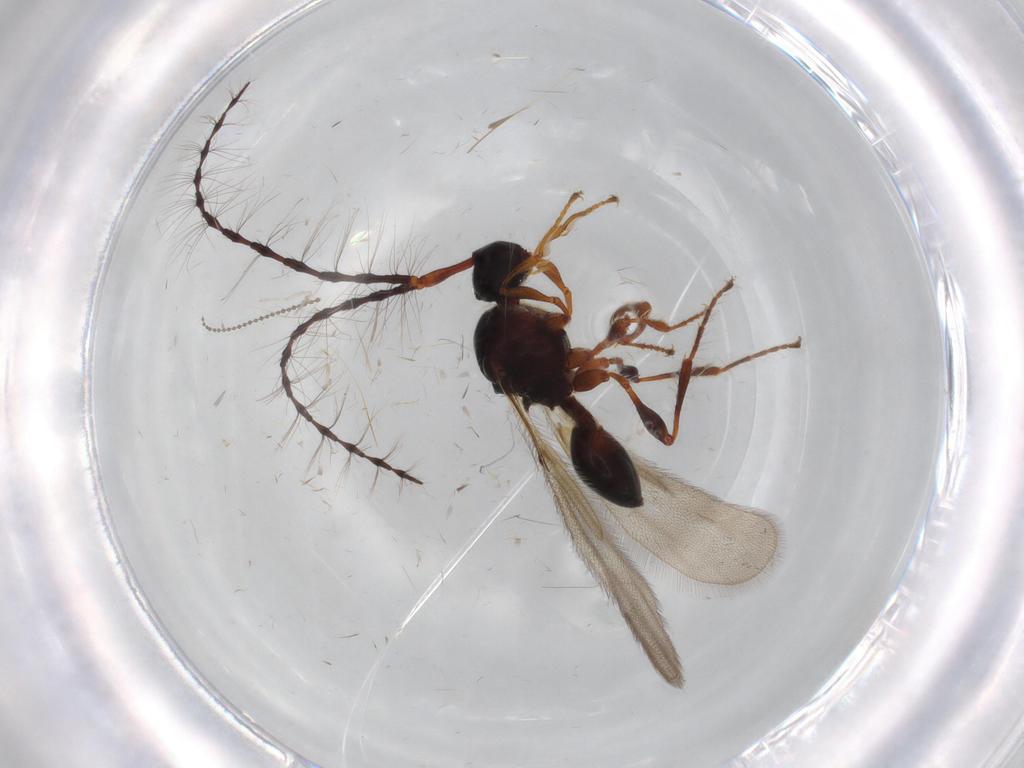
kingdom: Animalia
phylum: Arthropoda
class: Insecta
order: Hymenoptera
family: Diapriidae
